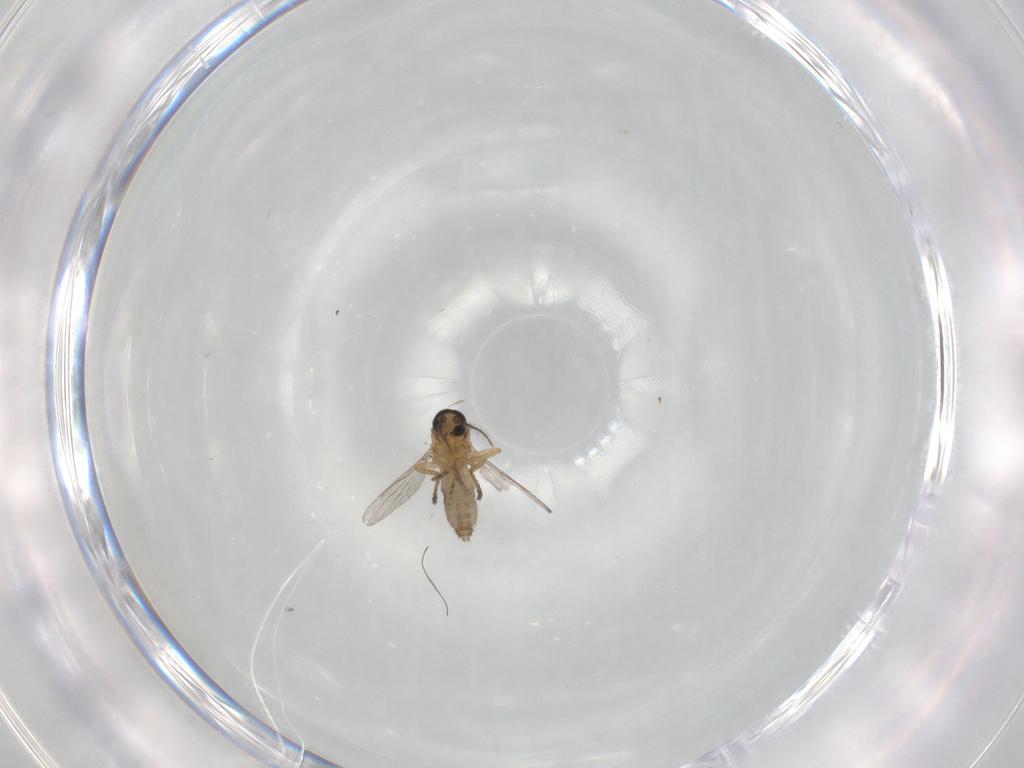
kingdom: Animalia
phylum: Arthropoda
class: Insecta
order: Diptera
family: Ceratopogonidae
